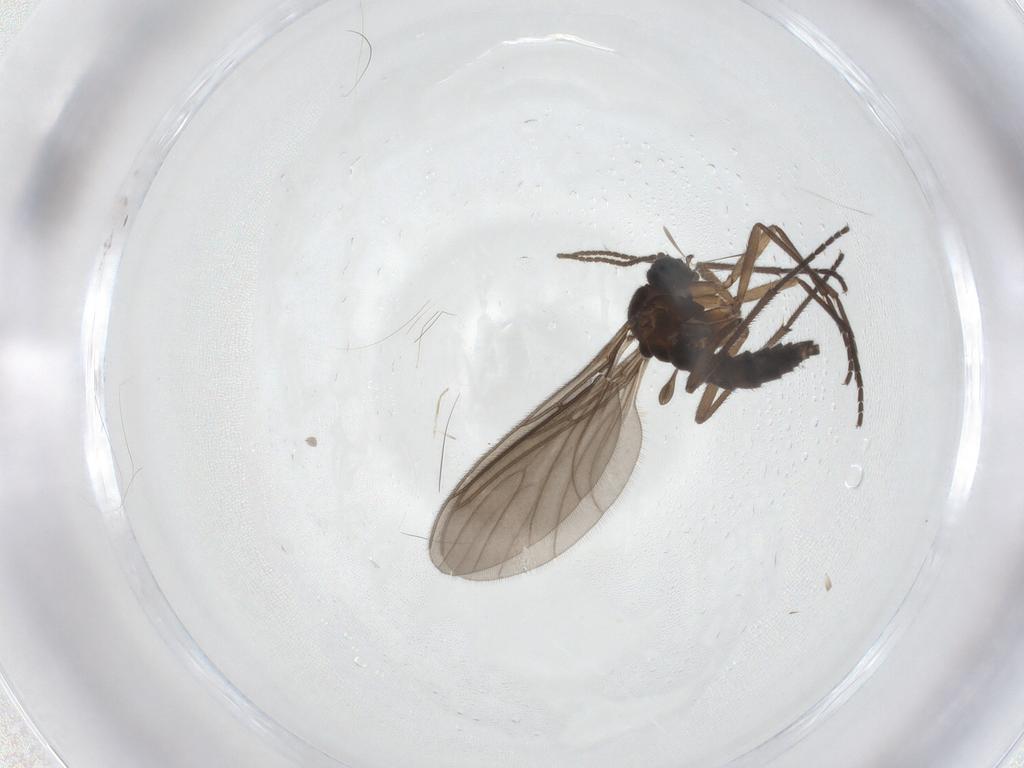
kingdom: Animalia
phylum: Arthropoda
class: Insecta
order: Diptera
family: Sciaridae
